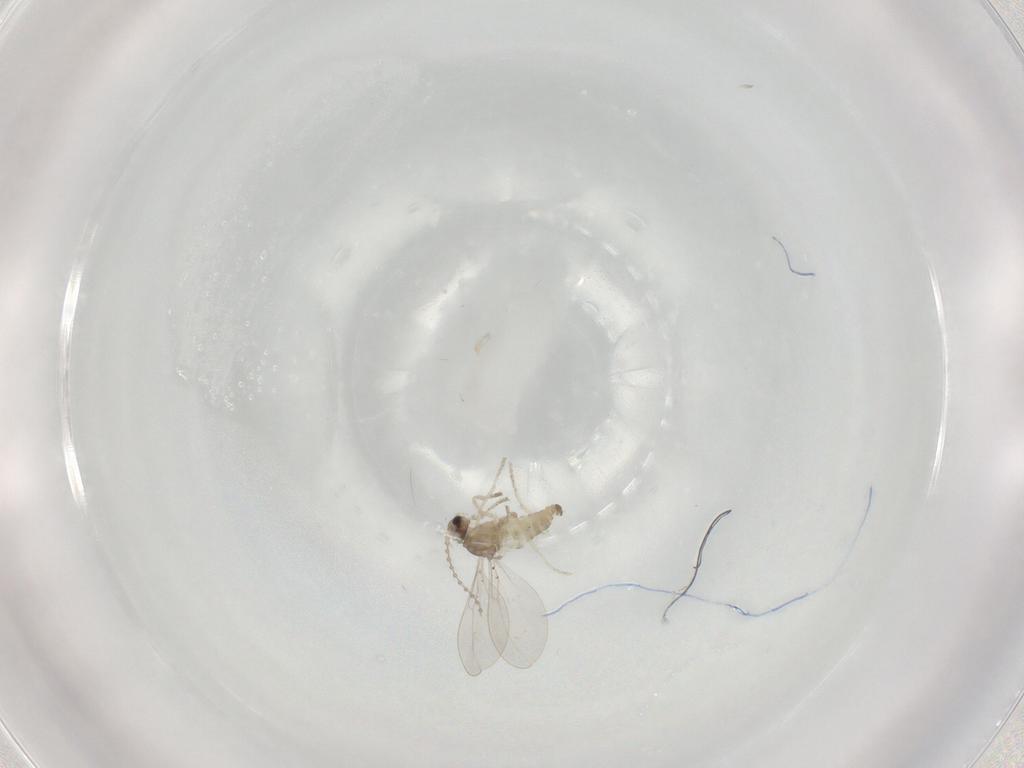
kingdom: Animalia
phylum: Arthropoda
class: Insecta
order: Diptera
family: Cecidomyiidae
